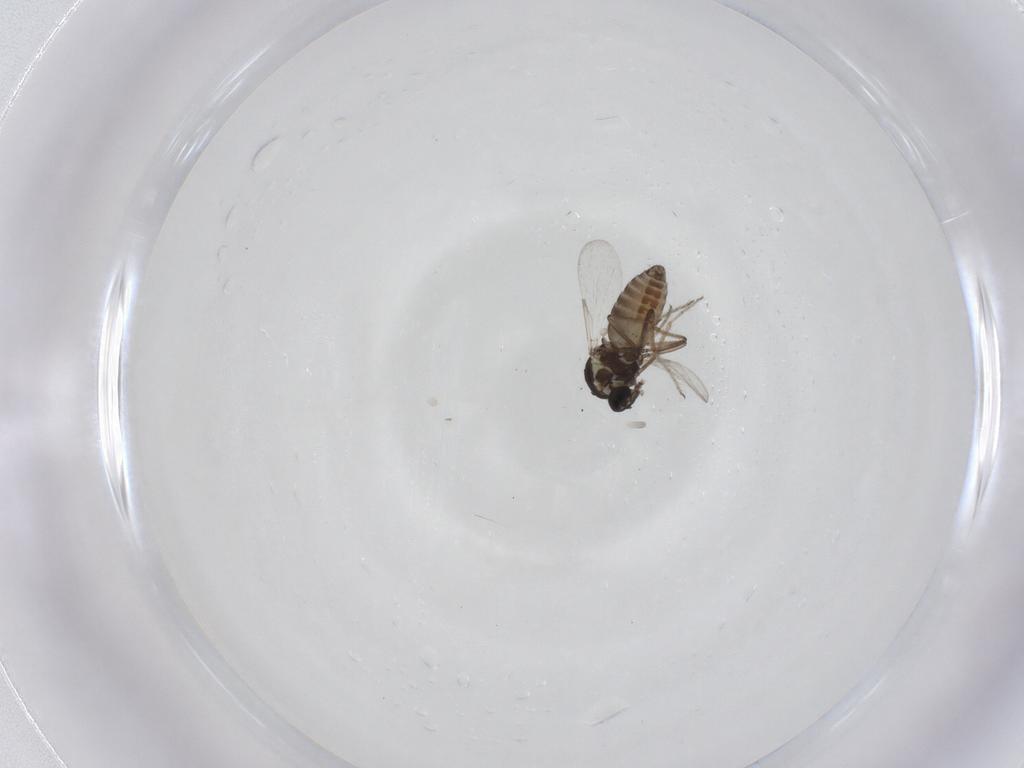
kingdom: Animalia
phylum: Arthropoda
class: Insecta
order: Diptera
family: Ceratopogonidae
